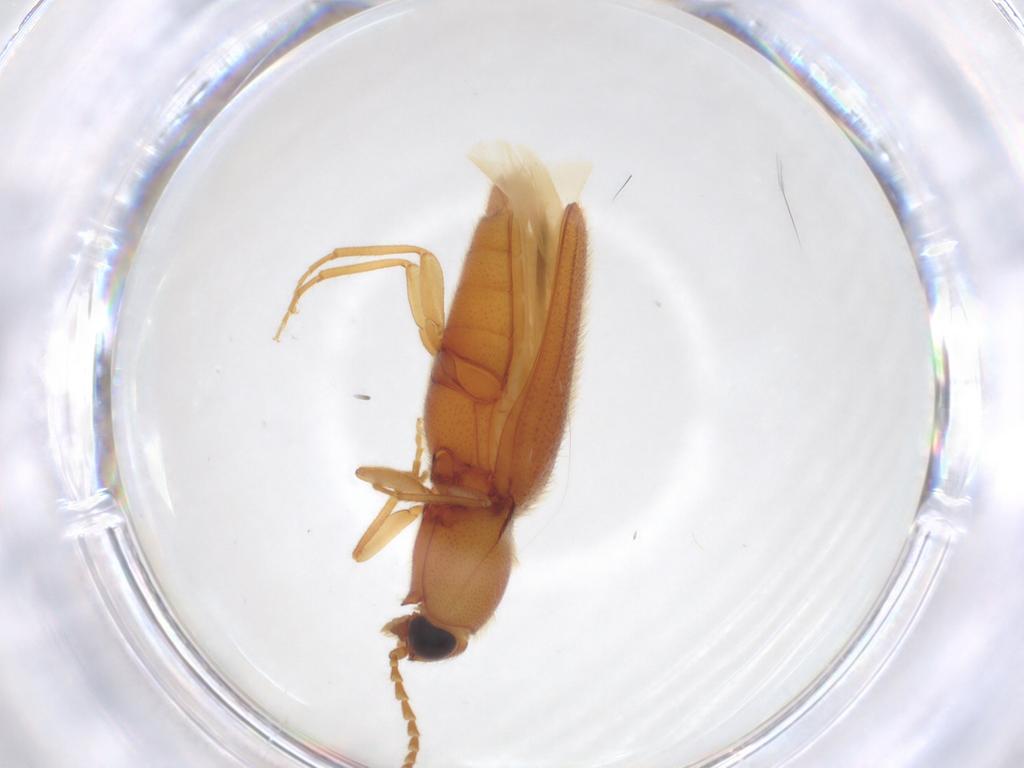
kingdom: Animalia
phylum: Arthropoda
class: Insecta
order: Coleoptera
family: Elateridae
